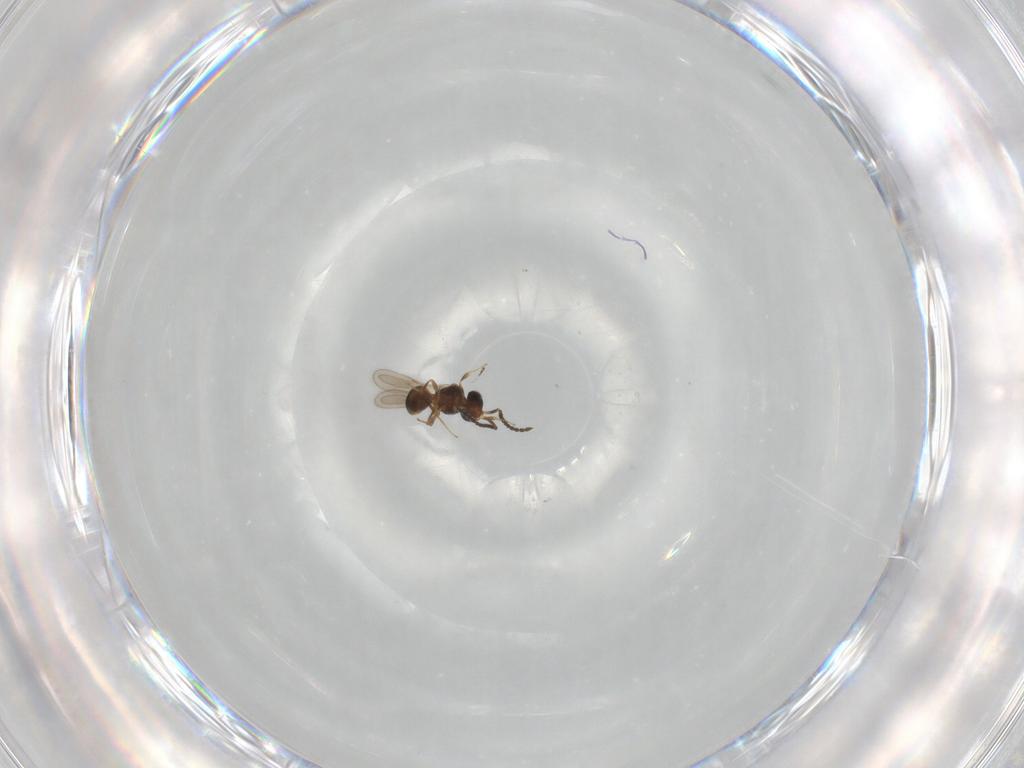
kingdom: Animalia
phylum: Arthropoda
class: Insecta
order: Hymenoptera
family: Scelionidae
